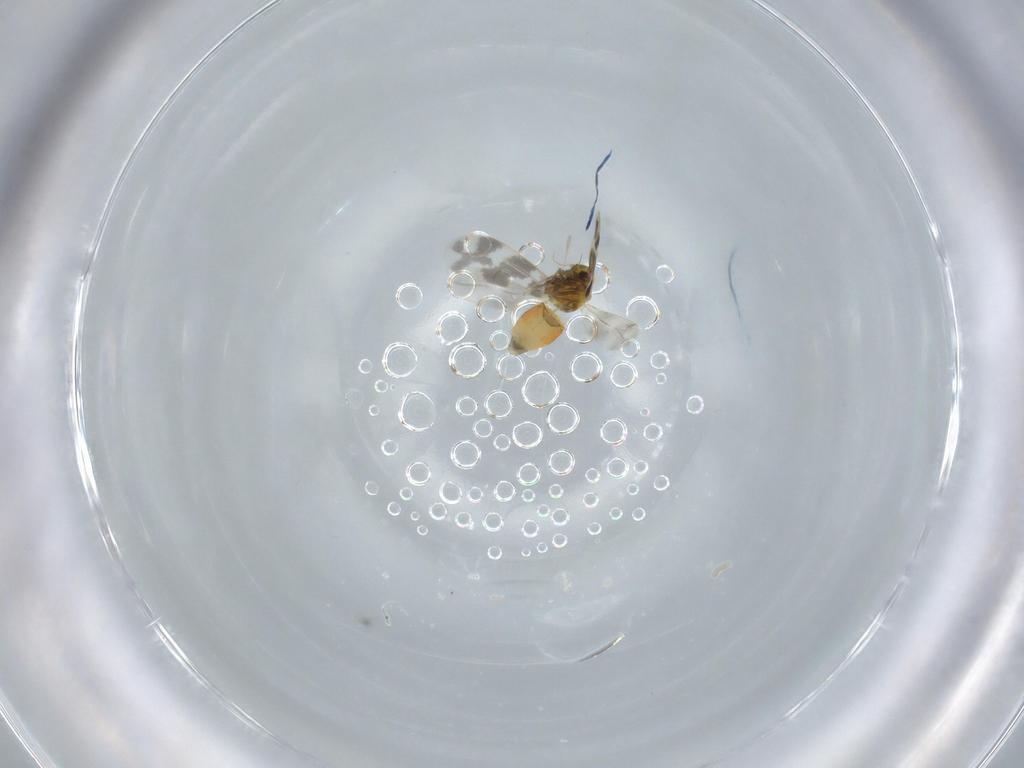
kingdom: Animalia
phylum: Arthropoda
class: Insecta
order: Hemiptera
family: Aleyrodidae
